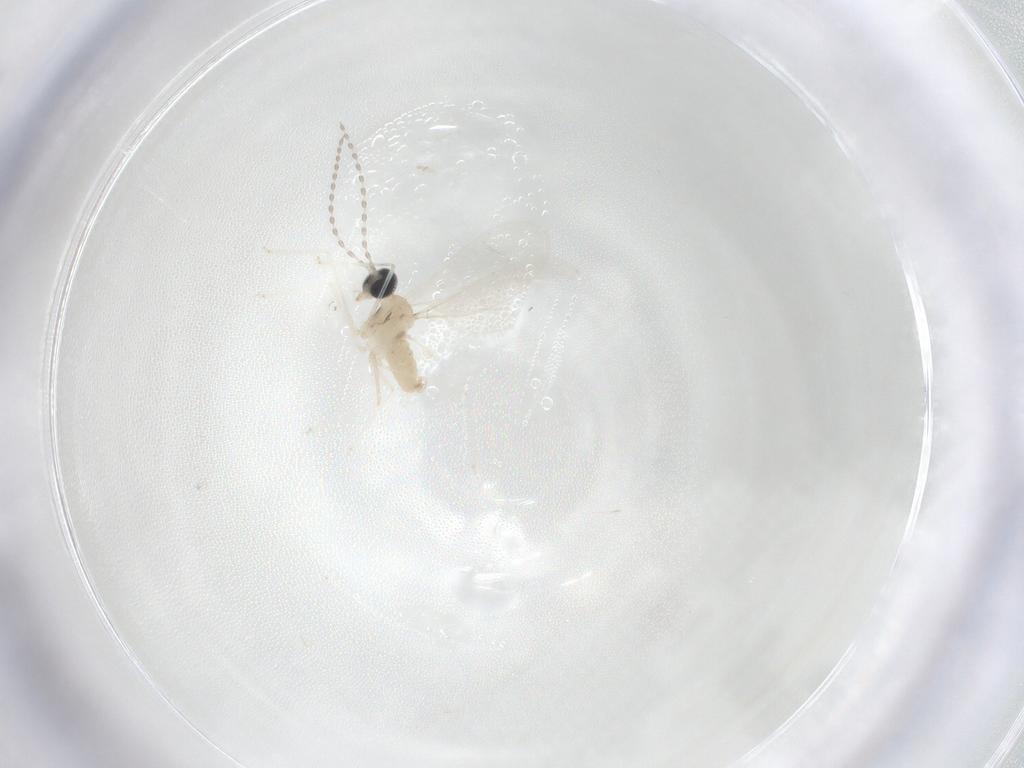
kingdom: Animalia
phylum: Arthropoda
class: Insecta
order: Diptera
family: Cecidomyiidae
